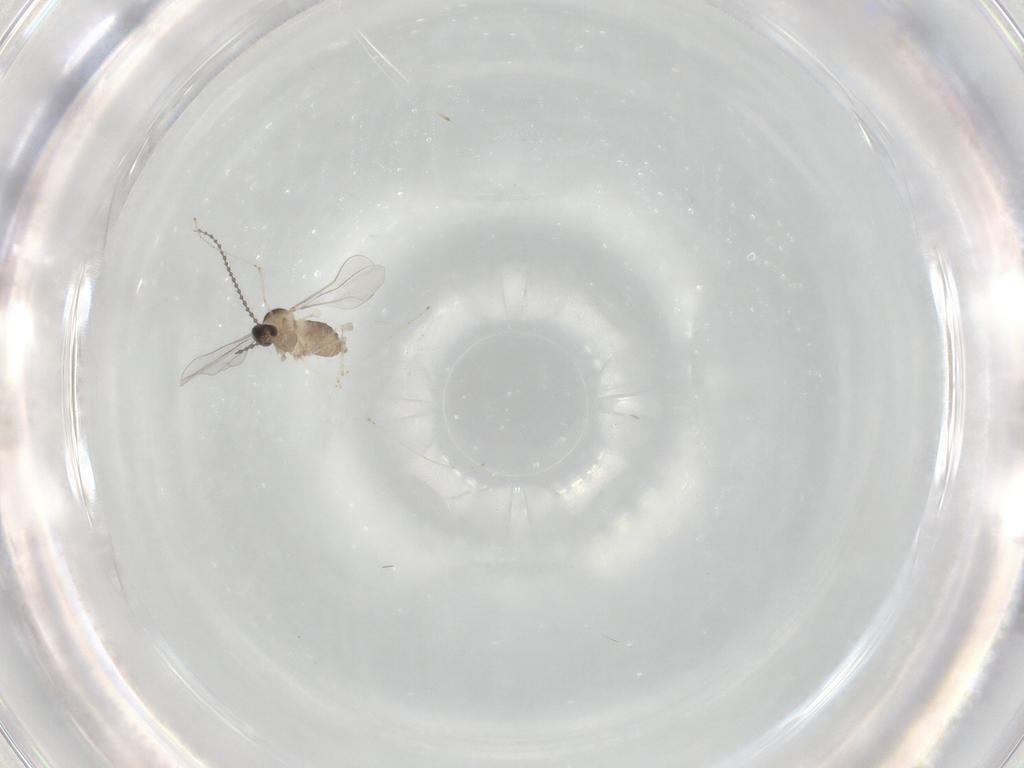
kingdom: Animalia
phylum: Arthropoda
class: Insecta
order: Diptera
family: Cecidomyiidae
